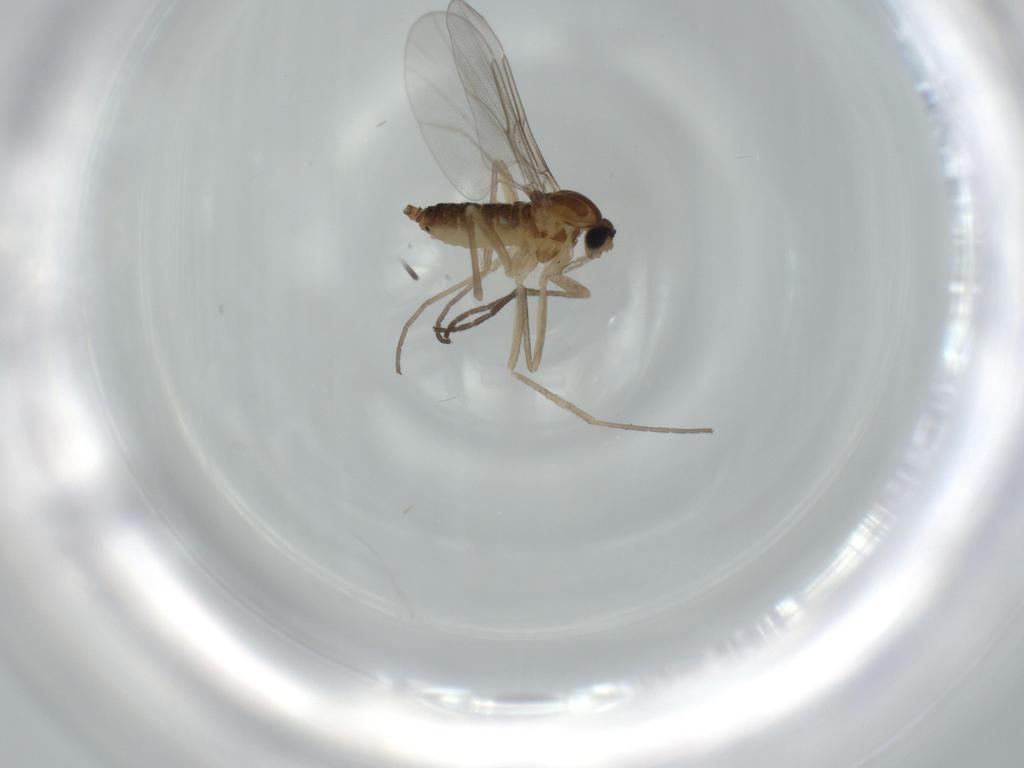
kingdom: Animalia
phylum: Arthropoda
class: Insecta
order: Diptera
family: Cecidomyiidae
